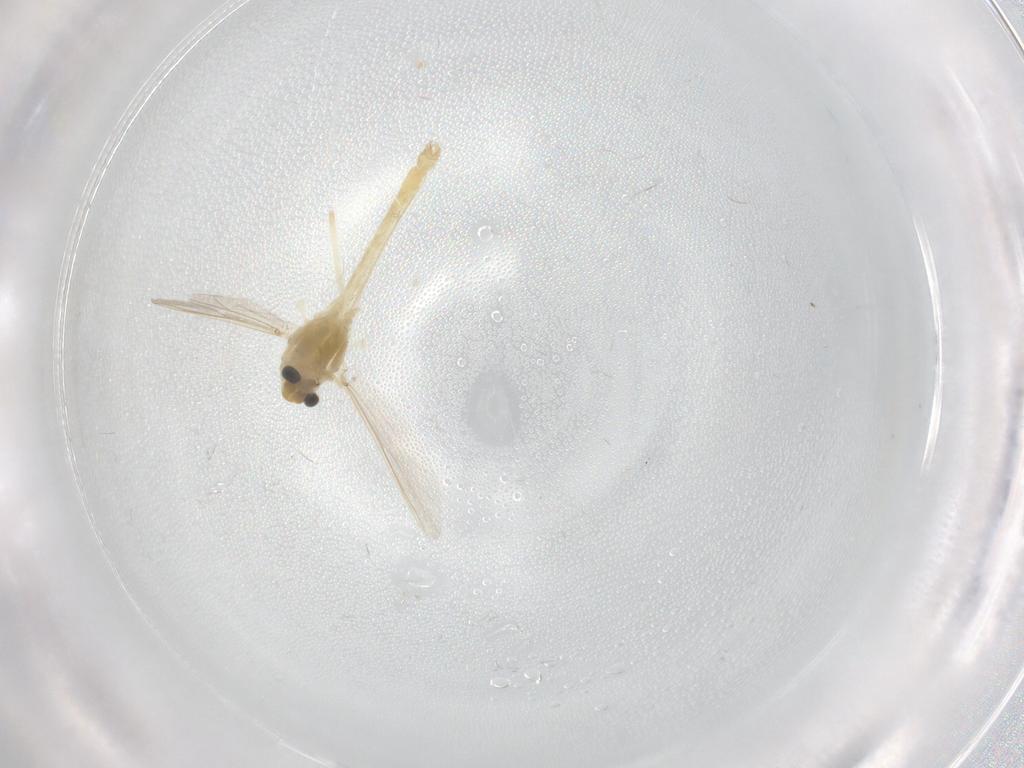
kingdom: Animalia
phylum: Arthropoda
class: Insecta
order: Diptera
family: Chironomidae
